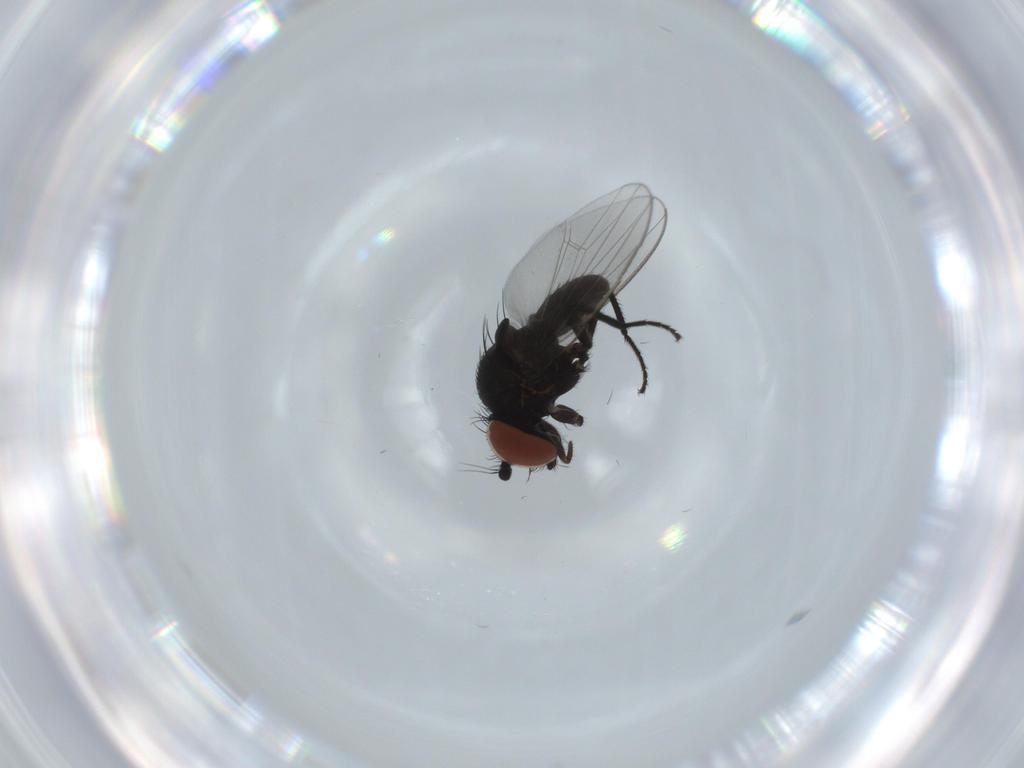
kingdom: Animalia
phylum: Arthropoda
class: Insecta
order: Diptera
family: Milichiidae
